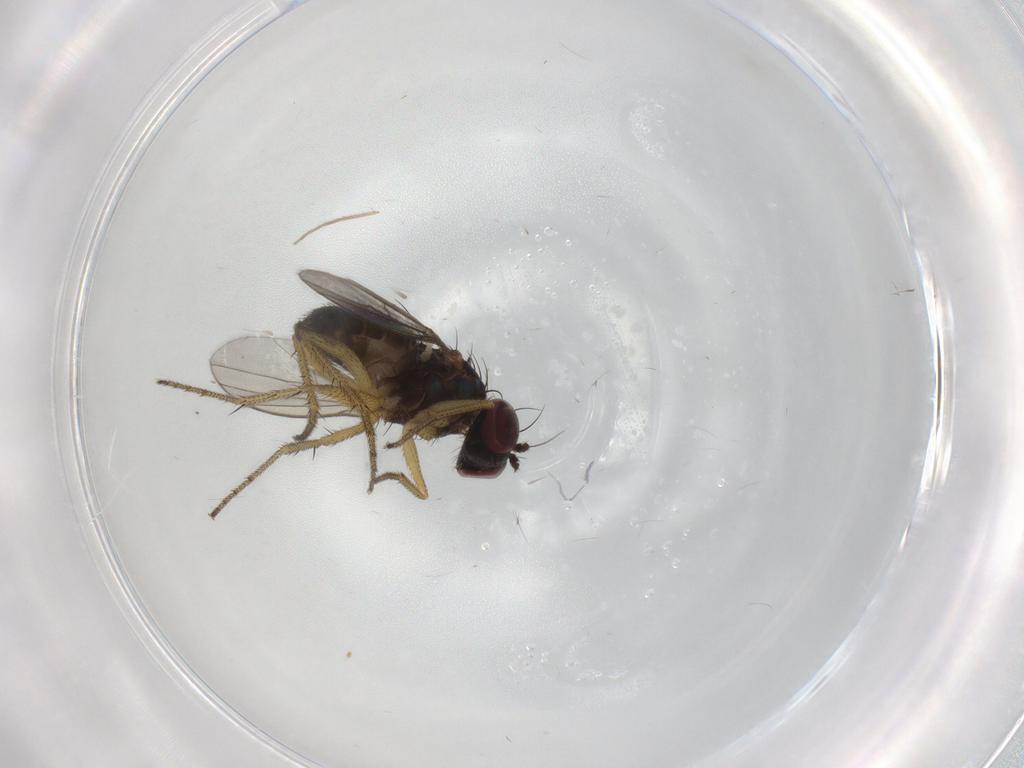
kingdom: Animalia
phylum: Arthropoda
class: Insecta
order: Diptera
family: Dolichopodidae
